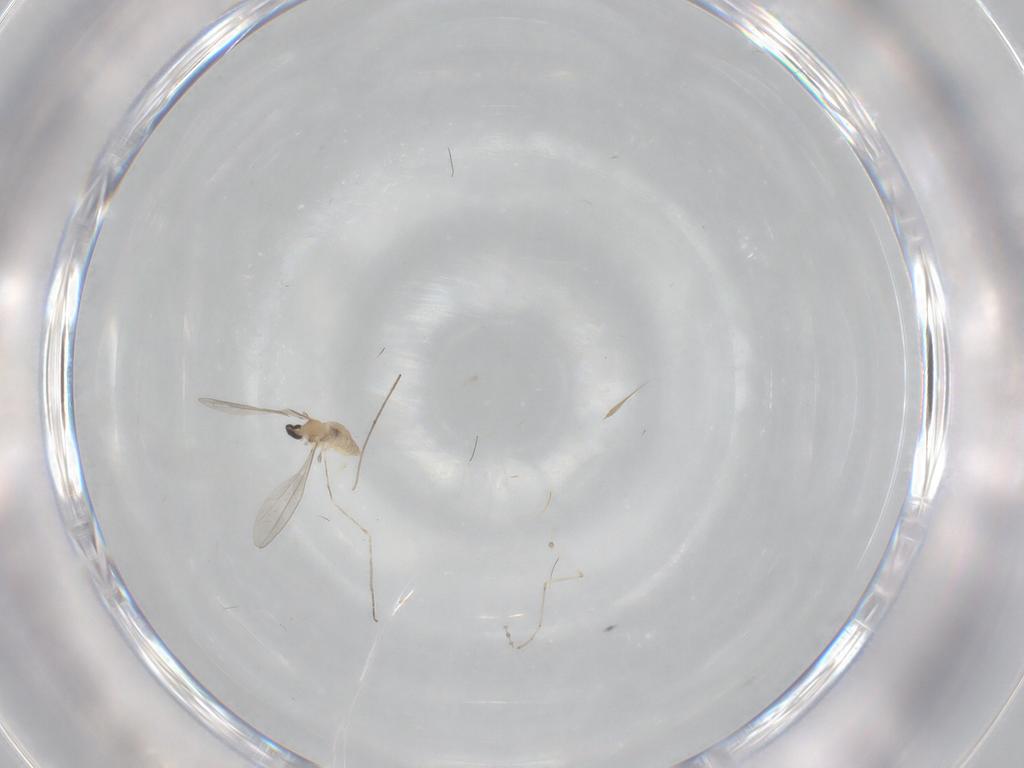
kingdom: Animalia
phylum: Arthropoda
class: Insecta
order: Diptera
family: Cecidomyiidae
